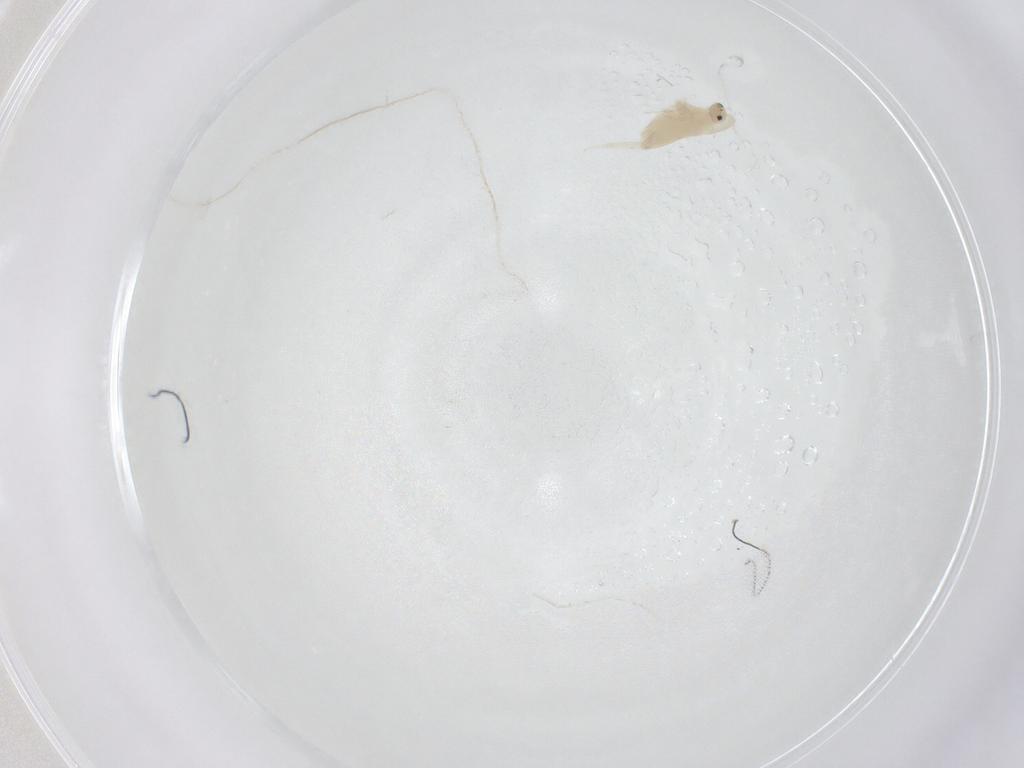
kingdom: Animalia
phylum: Arthropoda
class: Collembola
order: Entomobryomorpha
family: Entomobryidae
